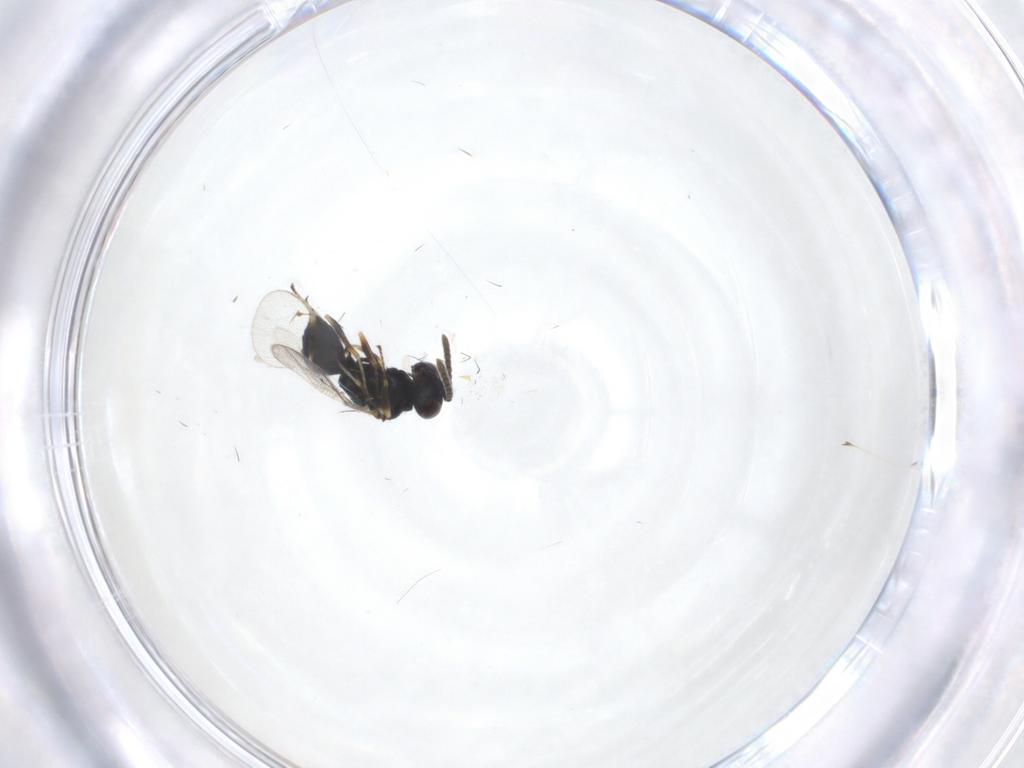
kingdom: Animalia
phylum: Arthropoda
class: Insecta
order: Hymenoptera
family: Pteromalidae
